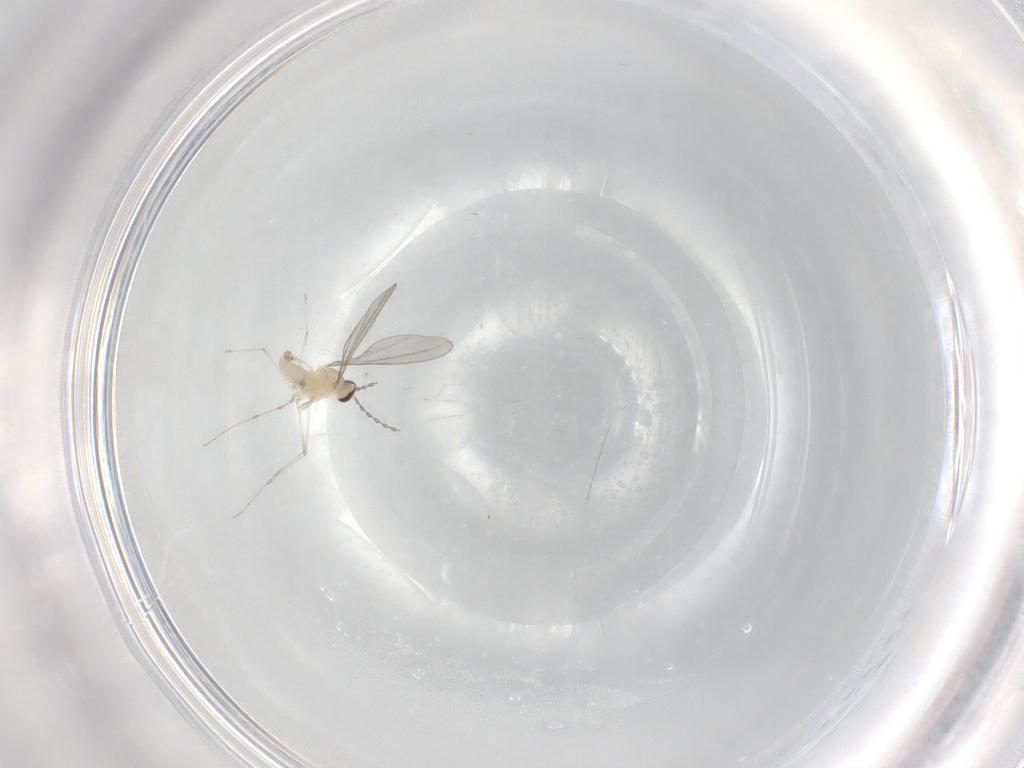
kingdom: Animalia
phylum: Arthropoda
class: Insecta
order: Diptera
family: Cecidomyiidae
